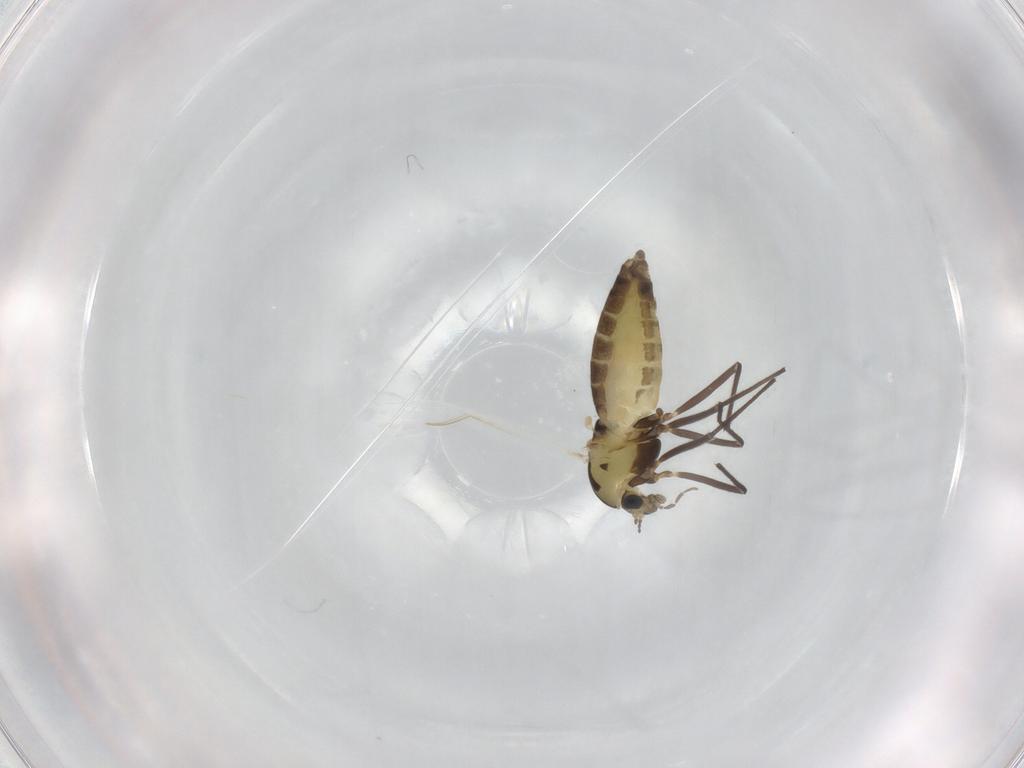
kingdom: Animalia
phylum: Arthropoda
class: Insecta
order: Diptera
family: Chironomidae
